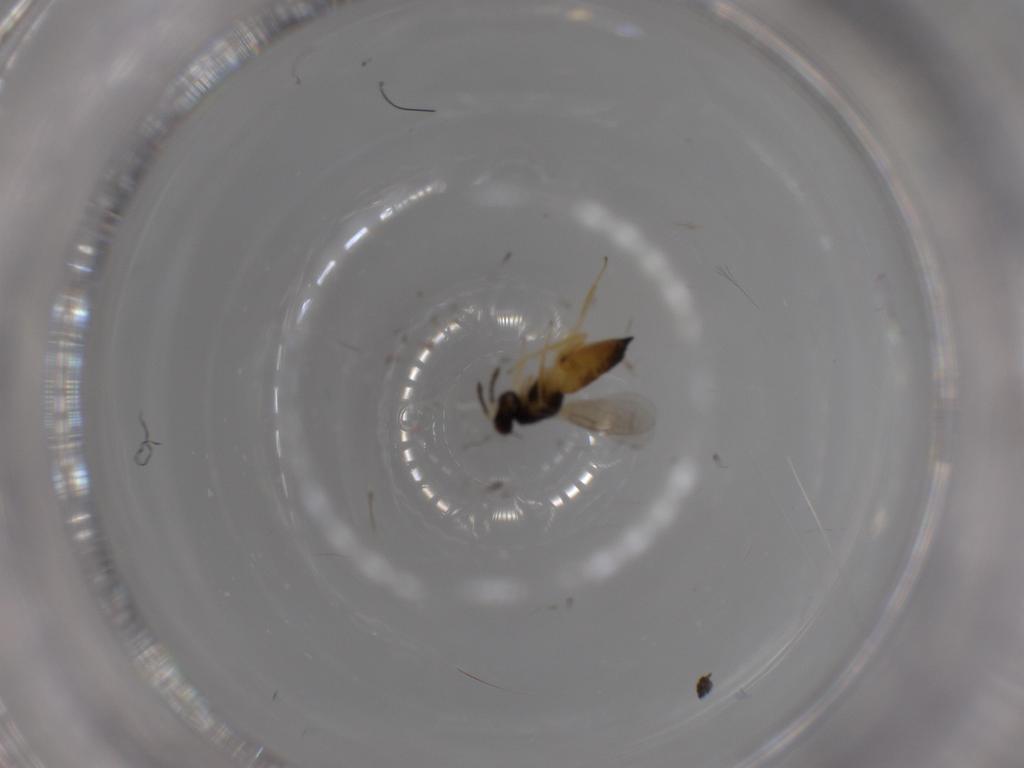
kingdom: Animalia
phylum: Arthropoda
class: Insecta
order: Hymenoptera
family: Eulophidae
